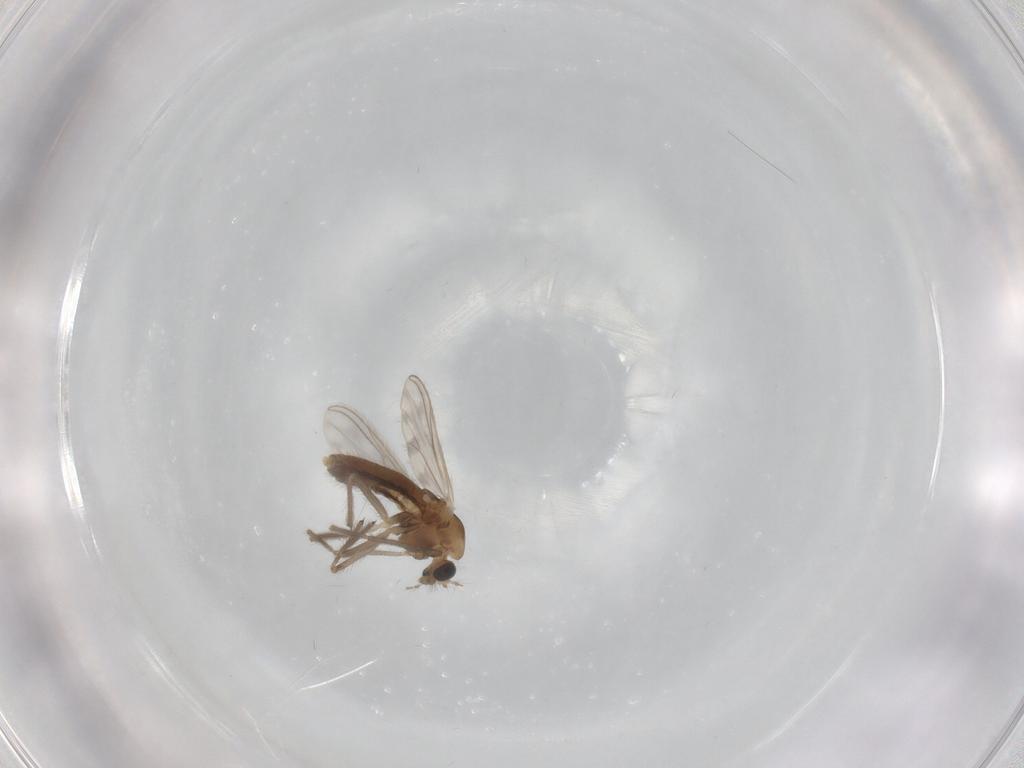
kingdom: Animalia
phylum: Arthropoda
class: Insecta
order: Diptera
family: Chironomidae
